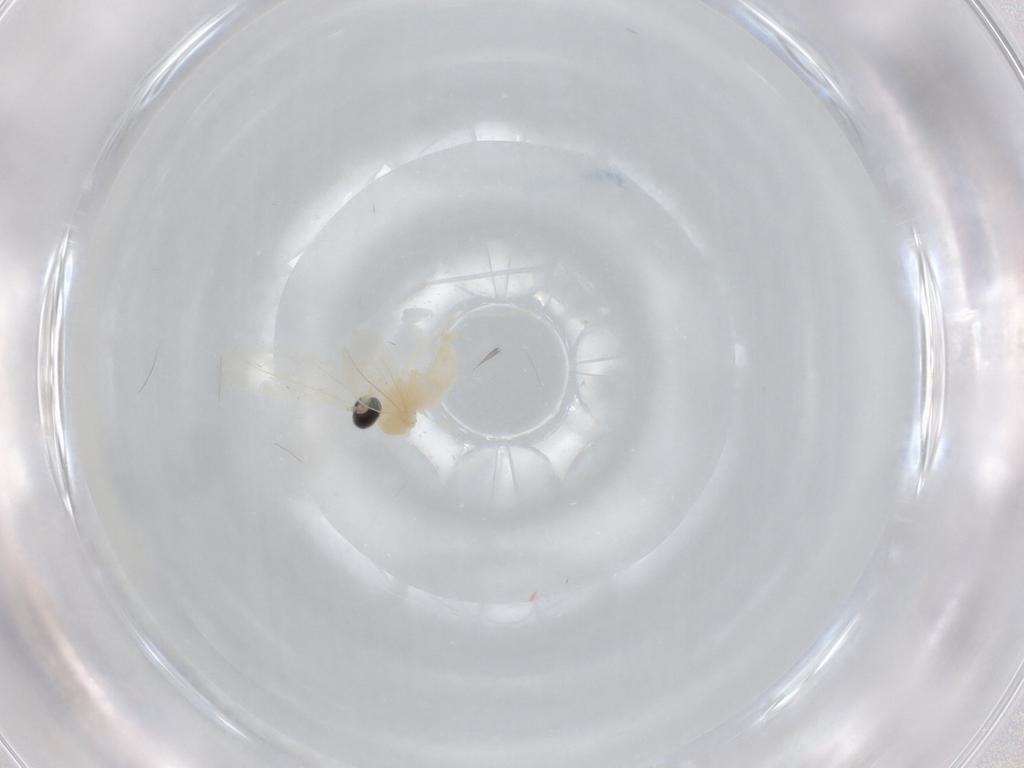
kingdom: Animalia
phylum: Arthropoda
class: Insecta
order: Diptera
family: Cecidomyiidae
